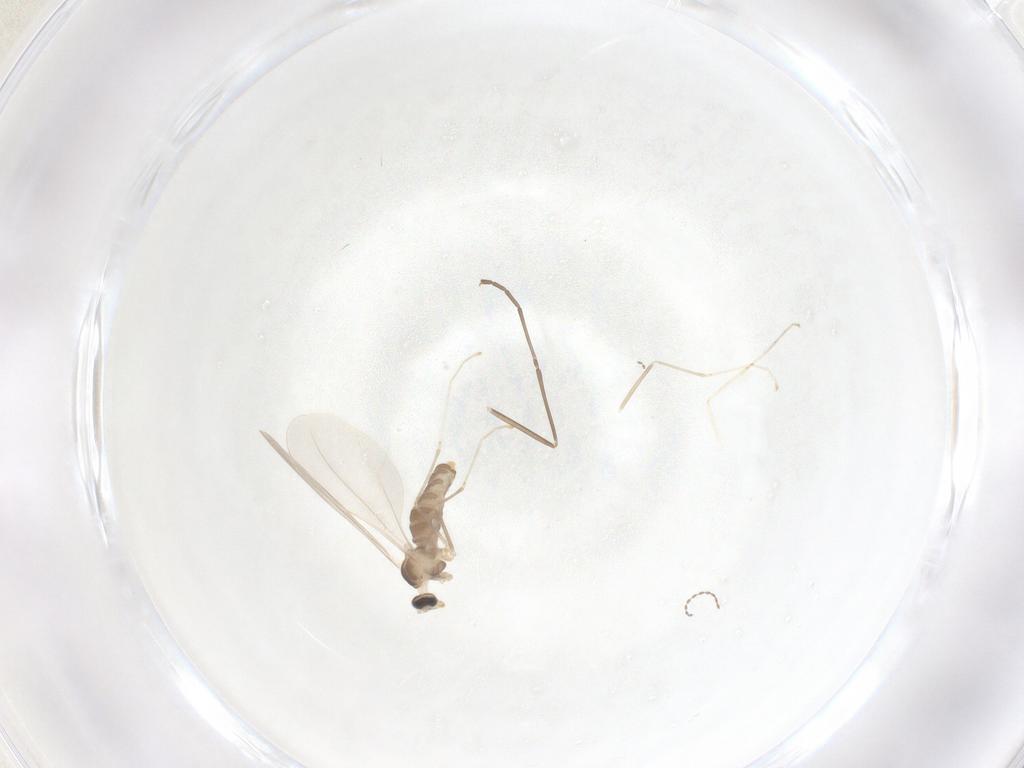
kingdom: Animalia
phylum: Arthropoda
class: Insecta
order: Diptera
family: Cecidomyiidae
